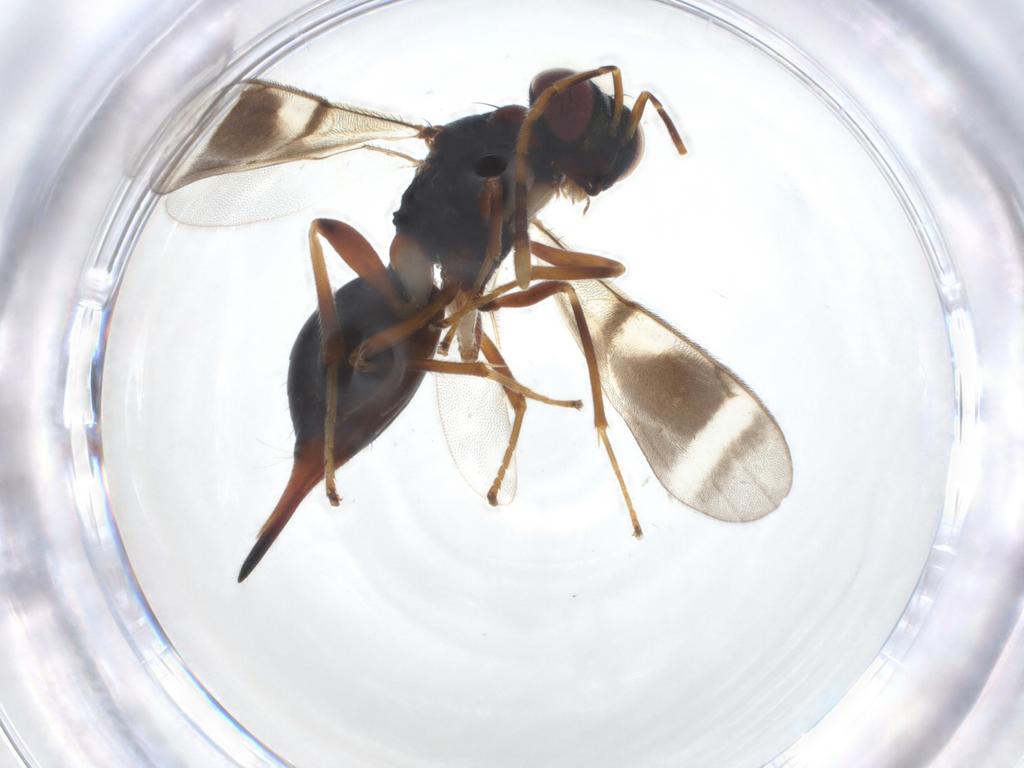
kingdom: Animalia
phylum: Arthropoda
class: Insecta
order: Hymenoptera
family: Diparidae
